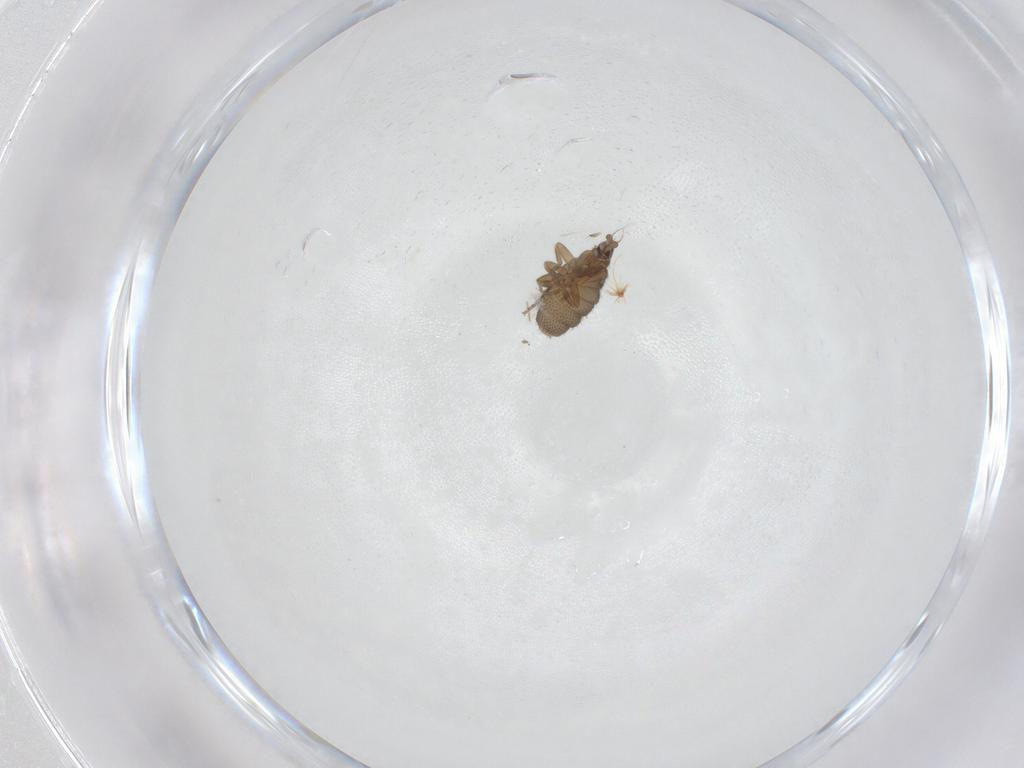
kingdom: Animalia
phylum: Arthropoda
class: Insecta
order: Diptera
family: Phoridae
